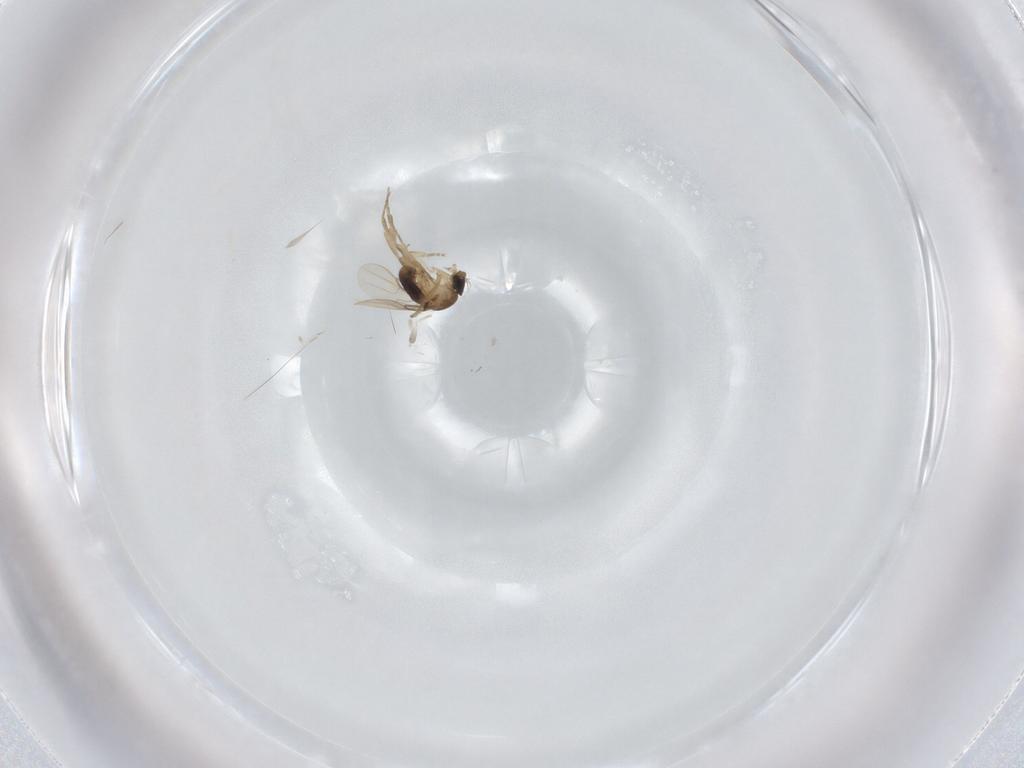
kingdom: Animalia
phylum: Arthropoda
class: Insecta
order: Diptera
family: Phoridae
